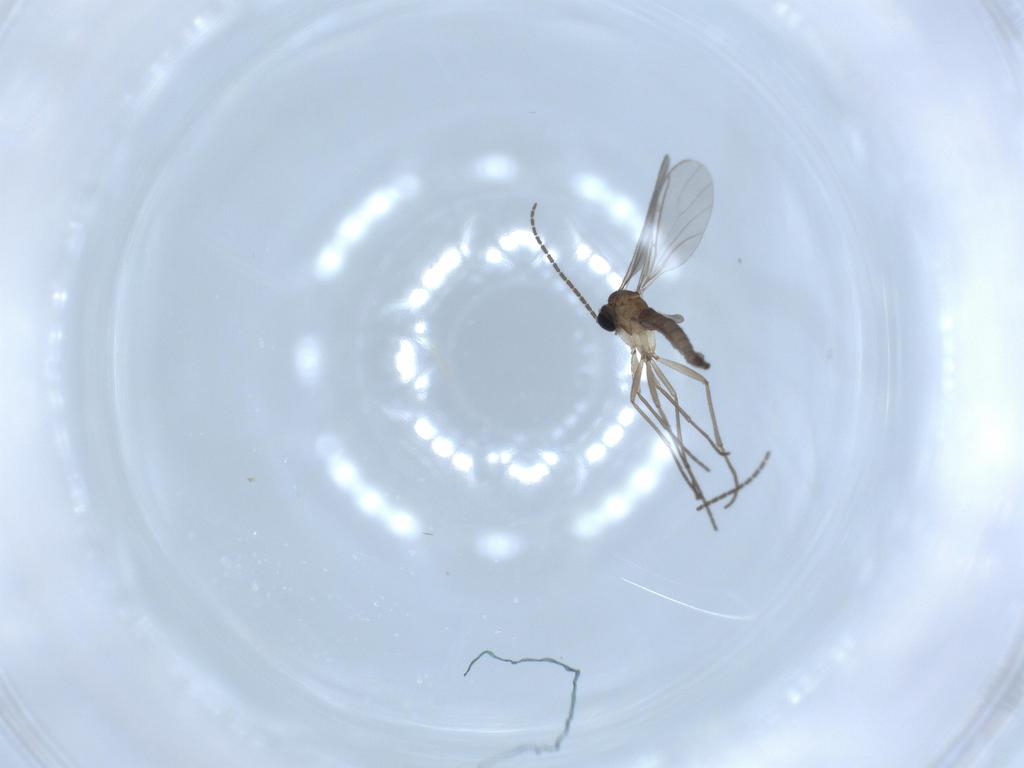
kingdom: Animalia
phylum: Arthropoda
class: Insecta
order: Diptera
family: Sciaridae
